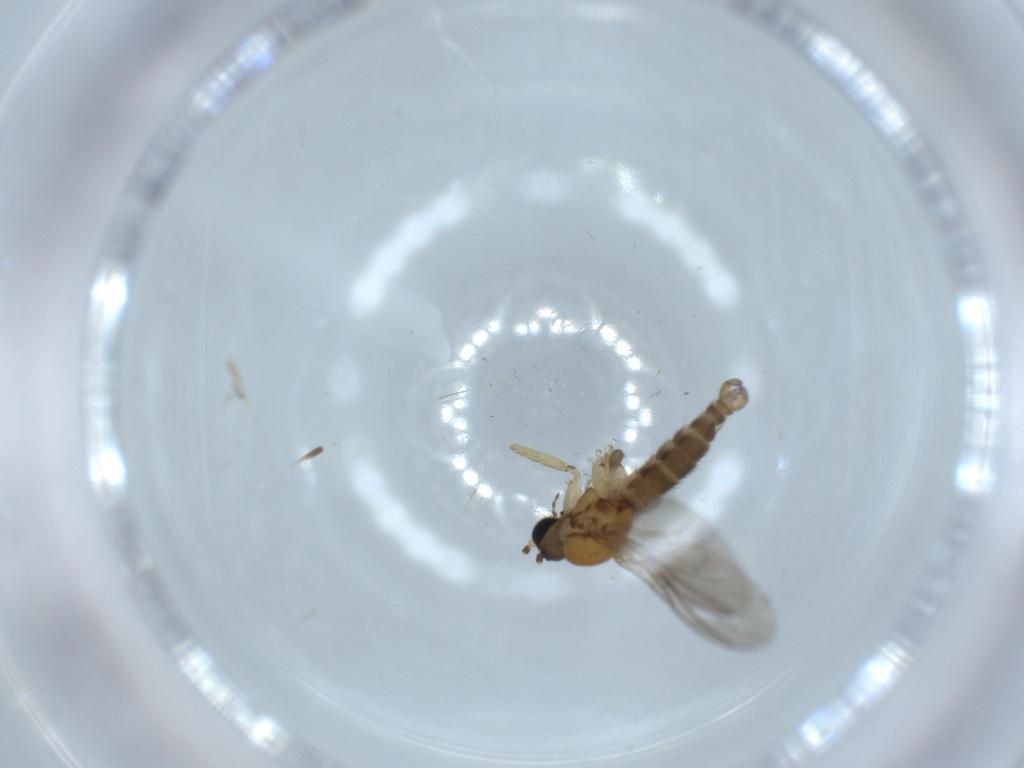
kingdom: Animalia
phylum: Arthropoda
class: Insecta
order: Diptera
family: Sciaridae
